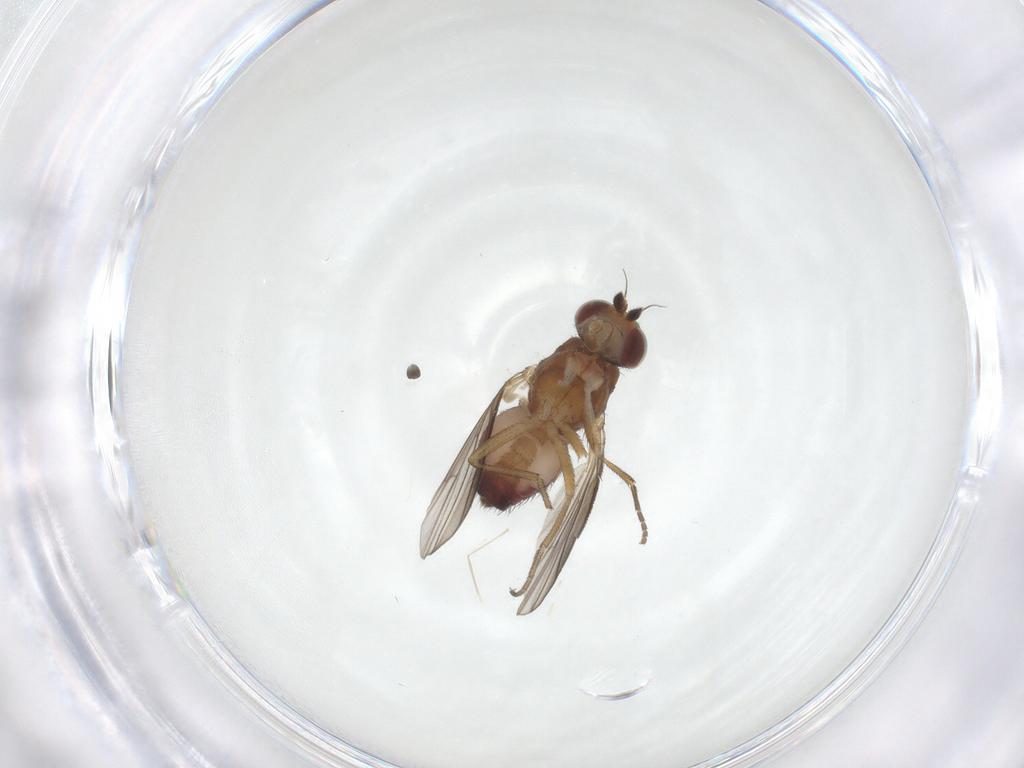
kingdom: Animalia
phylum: Arthropoda
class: Insecta
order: Diptera
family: Heleomyzidae
